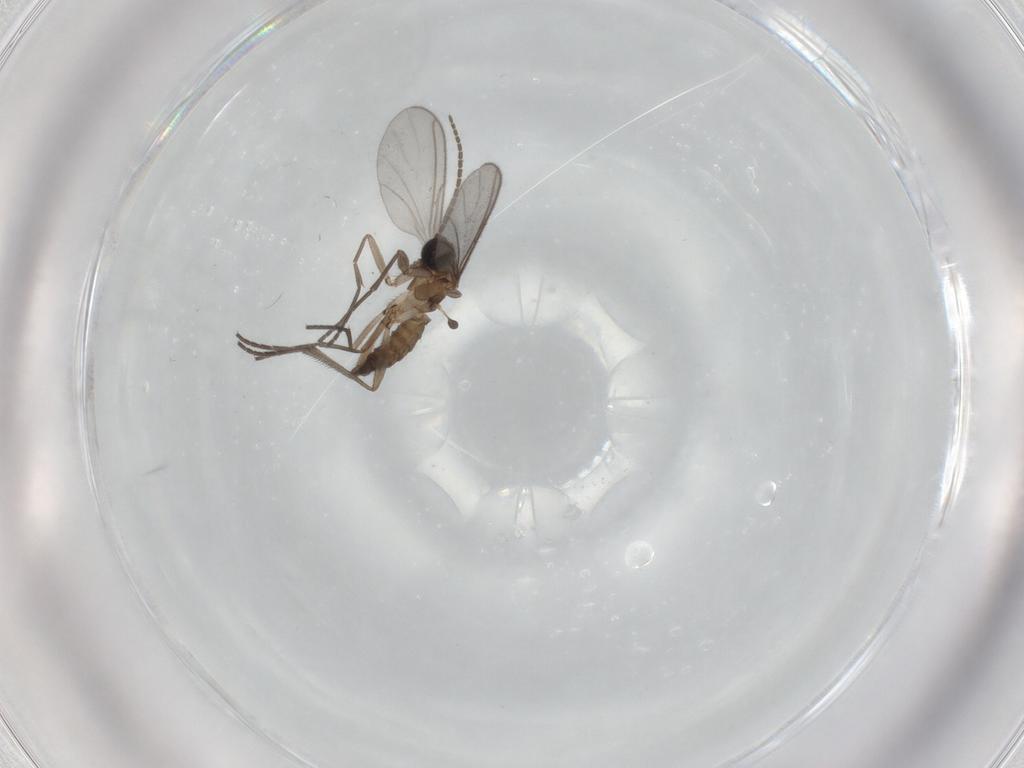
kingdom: Animalia
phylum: Arthropoda
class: Insecta
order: Diptera
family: Sciaridae
